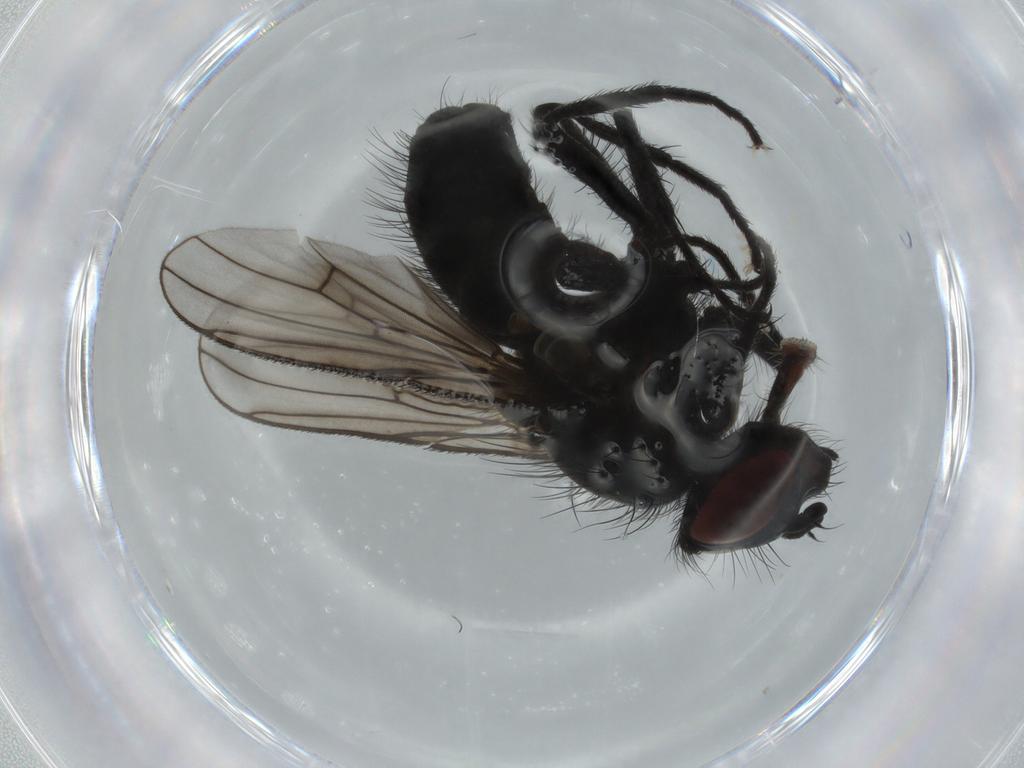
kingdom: Animalia
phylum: Arthropoda
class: Insecta
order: Diptera
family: Muscidae
